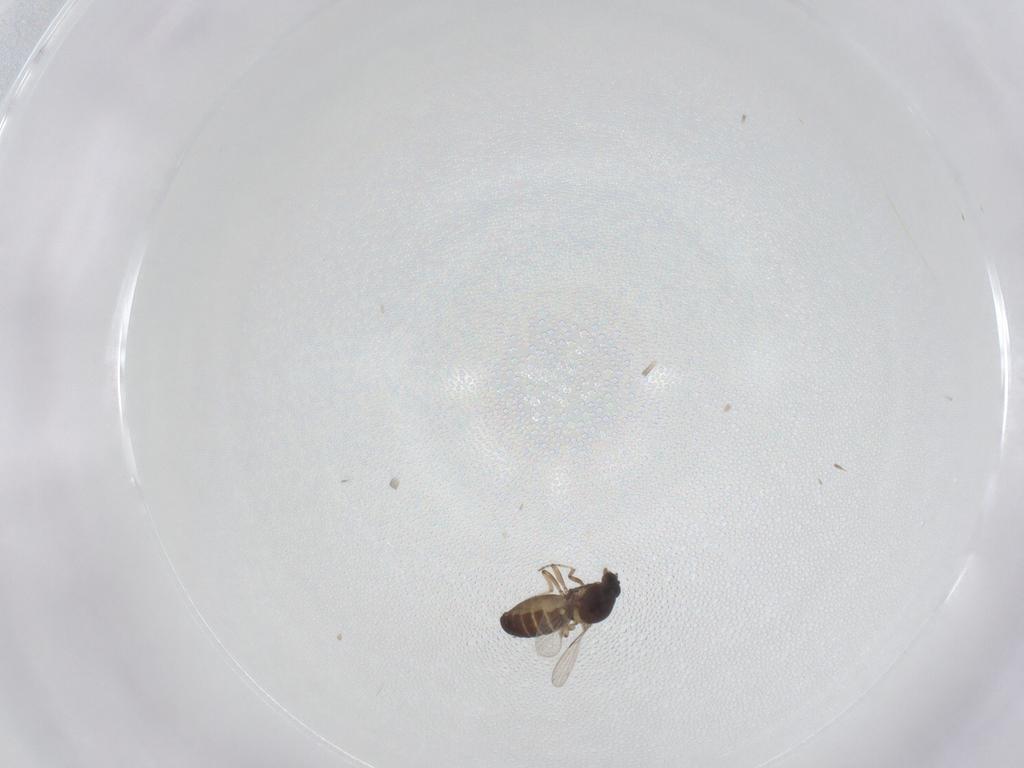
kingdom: Animalia
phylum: Arthropoda
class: Insecta
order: Diptera
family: Ceratopogonidae
